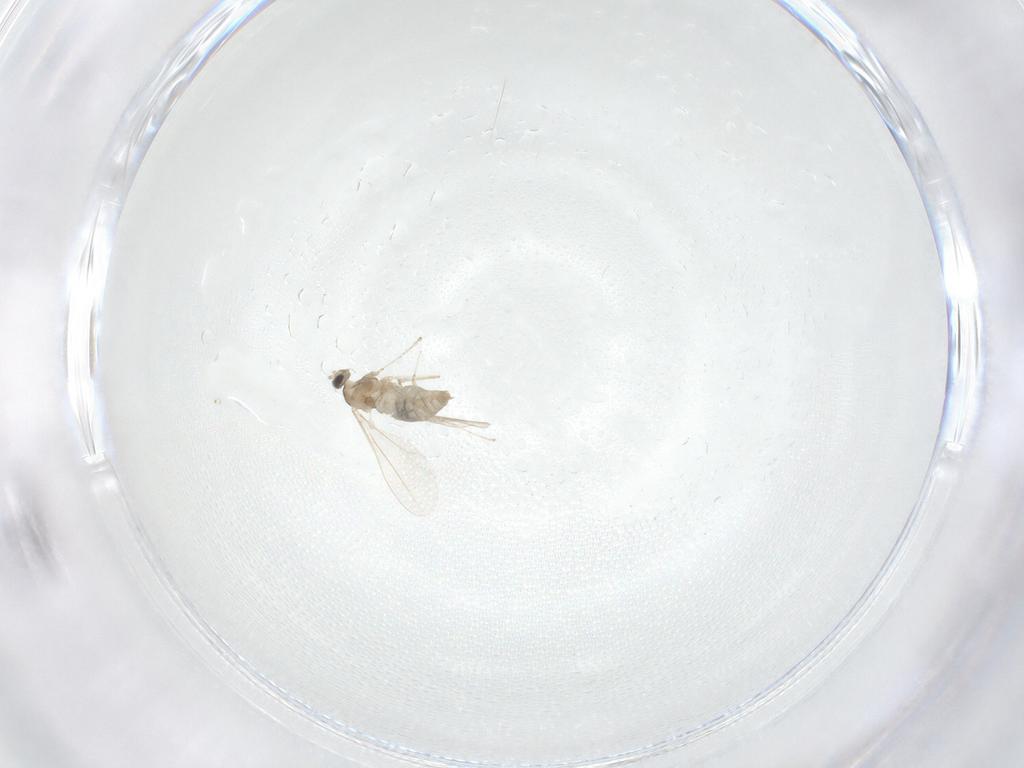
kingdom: Animalia
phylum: Arthropoda
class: Insecta
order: Diptera
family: Cecidomyiidae
